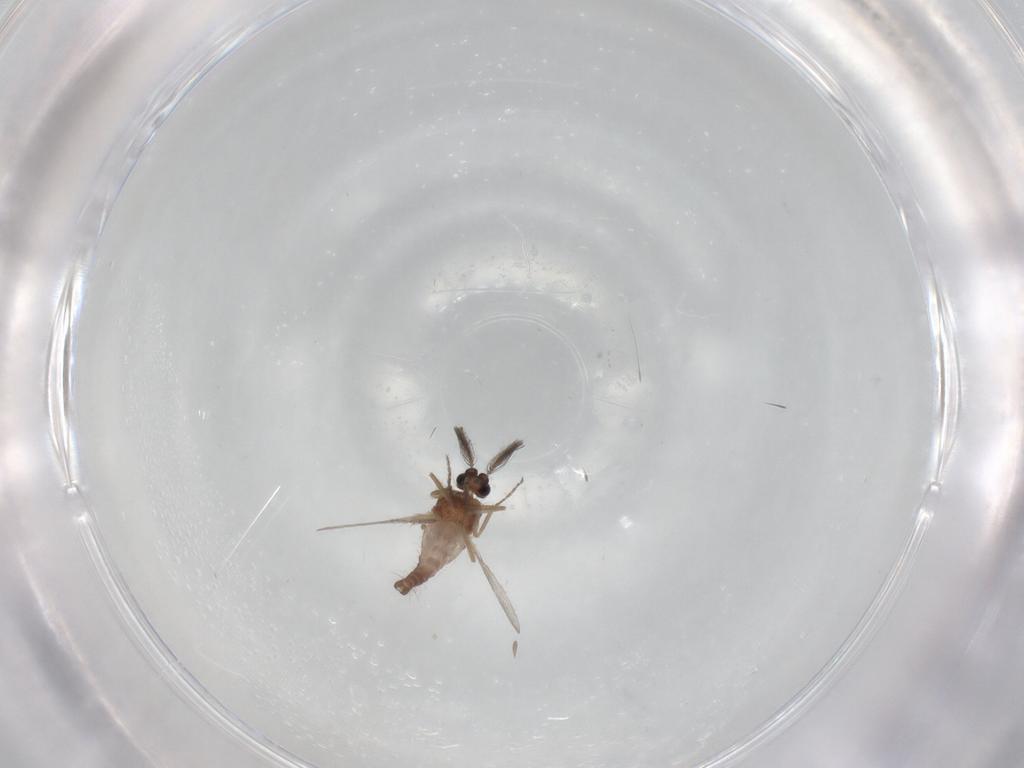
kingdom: Animalia
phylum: Arthropoda
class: Insecta
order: Diptera
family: Ceratopogonidae
